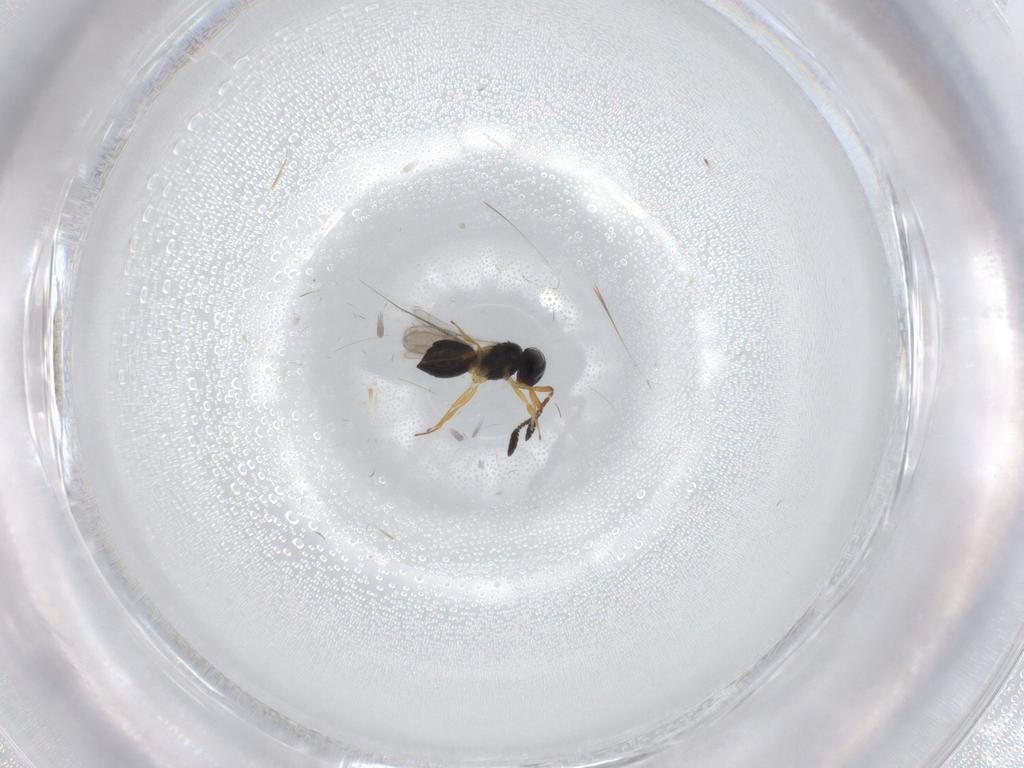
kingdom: Animalia
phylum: Arthropoda
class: Insecta
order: Hymenoptera
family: Scelionidae
